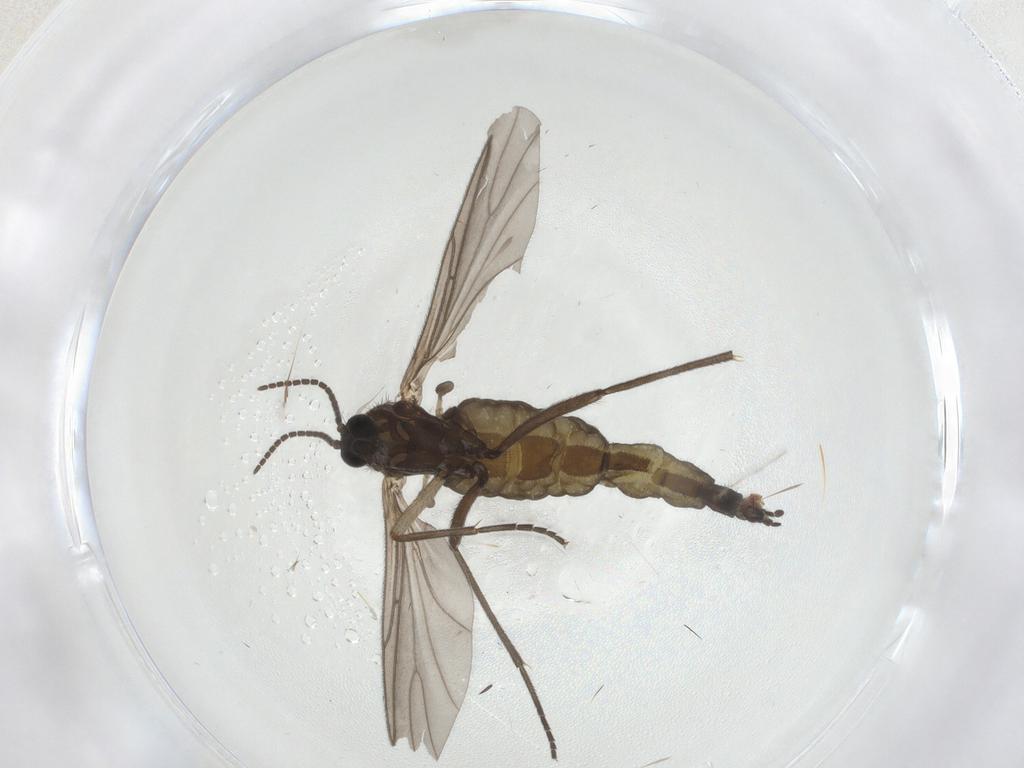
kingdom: Animalia
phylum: Arthropoda
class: Insecta
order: Diptera
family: Sciaridae
